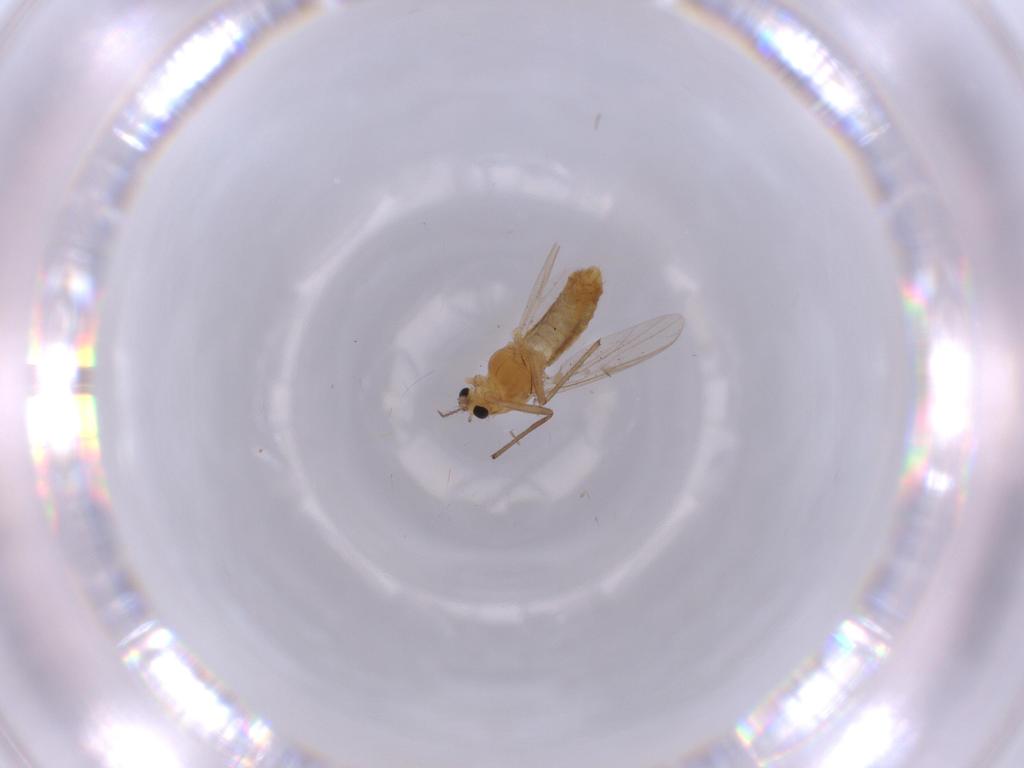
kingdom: Animalia
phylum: Arthropoda
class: Insecta
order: Diptera
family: Chironomidae
